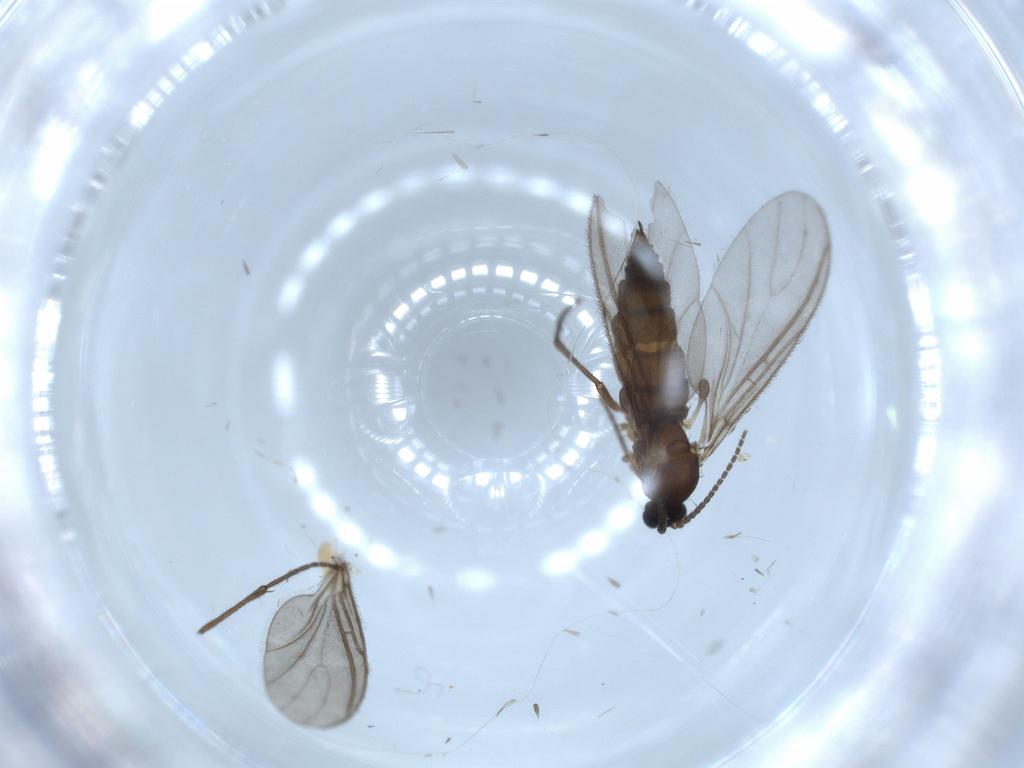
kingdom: Animalia
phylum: Arthropoda
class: Insecta
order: Diptera
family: Sciaridae
